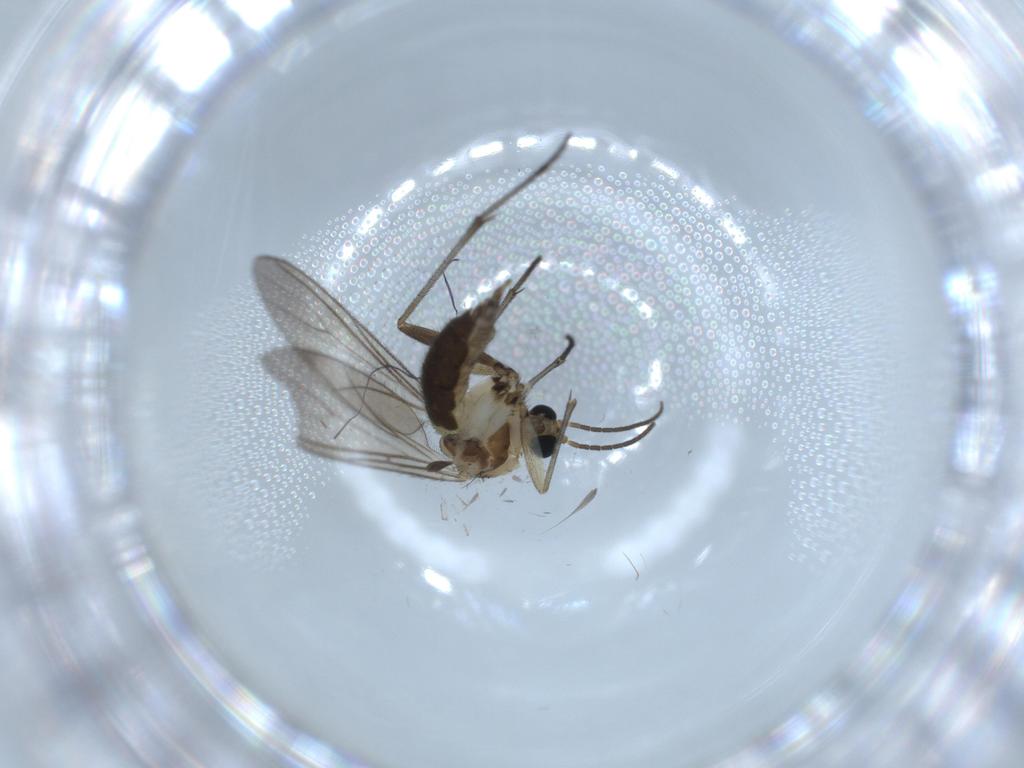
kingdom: Animalia
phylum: Arthropoda
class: Insecta
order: Diptera
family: Sciaridae
